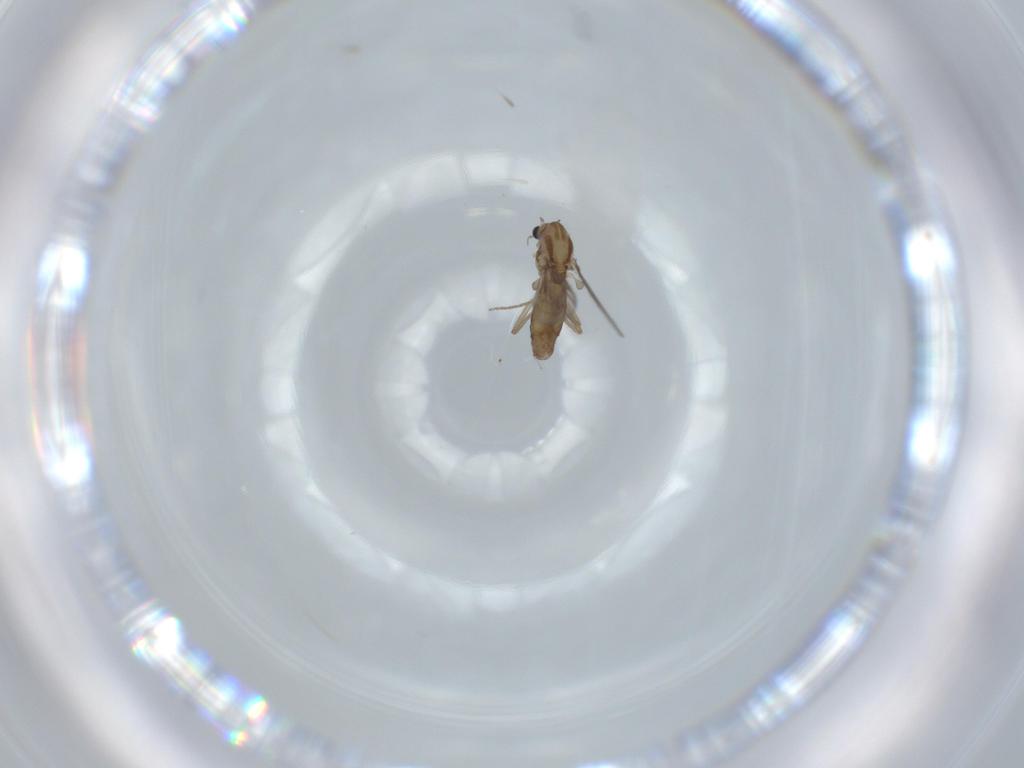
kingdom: Animalia
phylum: Arthropoda
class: Insecta
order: Diptera
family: Chironomidae
